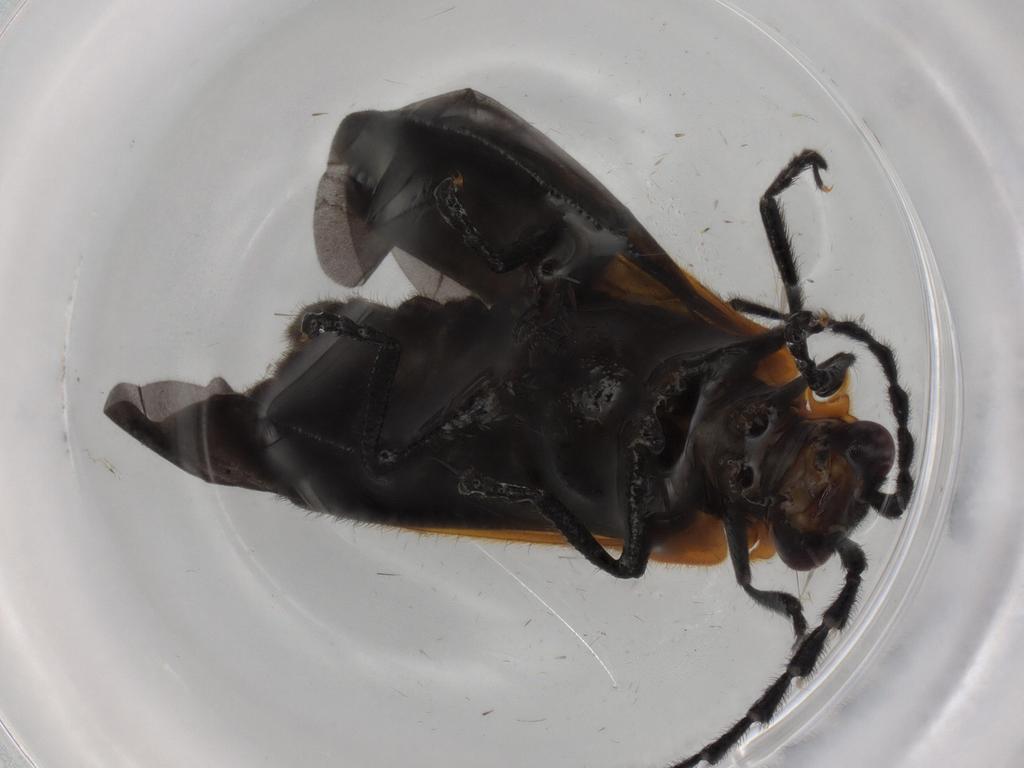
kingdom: Animalia
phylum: Arthropoda
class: Insecta
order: Coleoptera
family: Cantharidae
